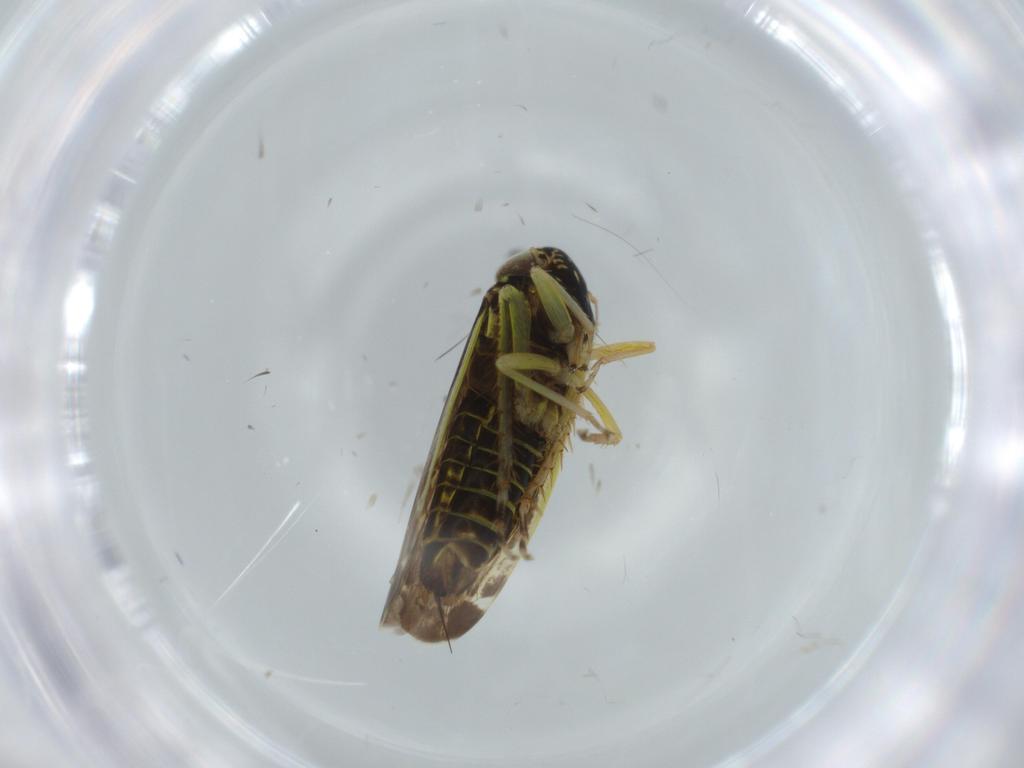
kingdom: Animalia
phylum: Arthropoda
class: Insecta
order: Hemiptera
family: Cicadellidae
